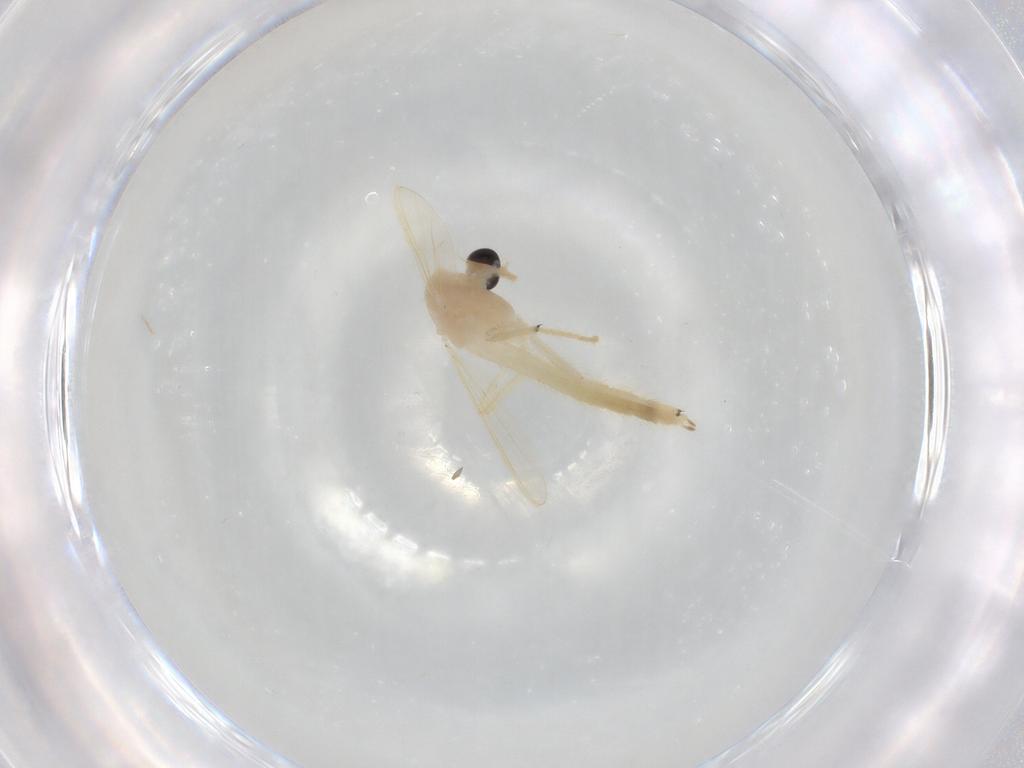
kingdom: Animalia
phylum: Arthropoda
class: Insecta
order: Diptera
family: Chironomidae
